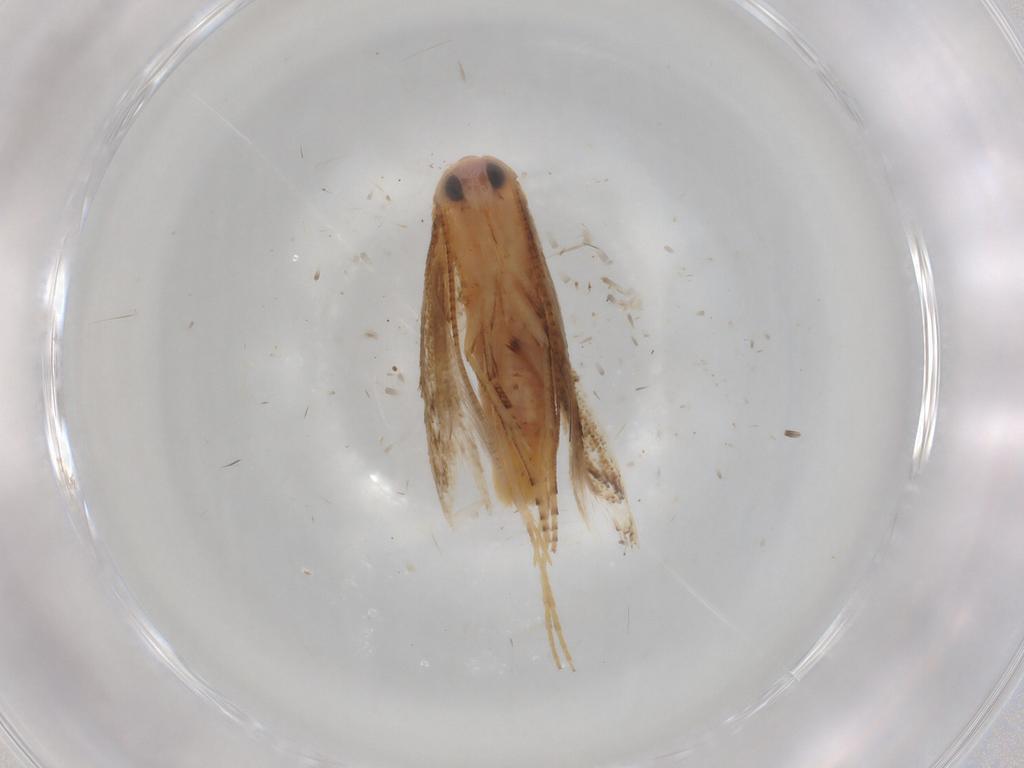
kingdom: Animalia
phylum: Arthropoda
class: Insecta
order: Lepidoptera
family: Noctuidae
